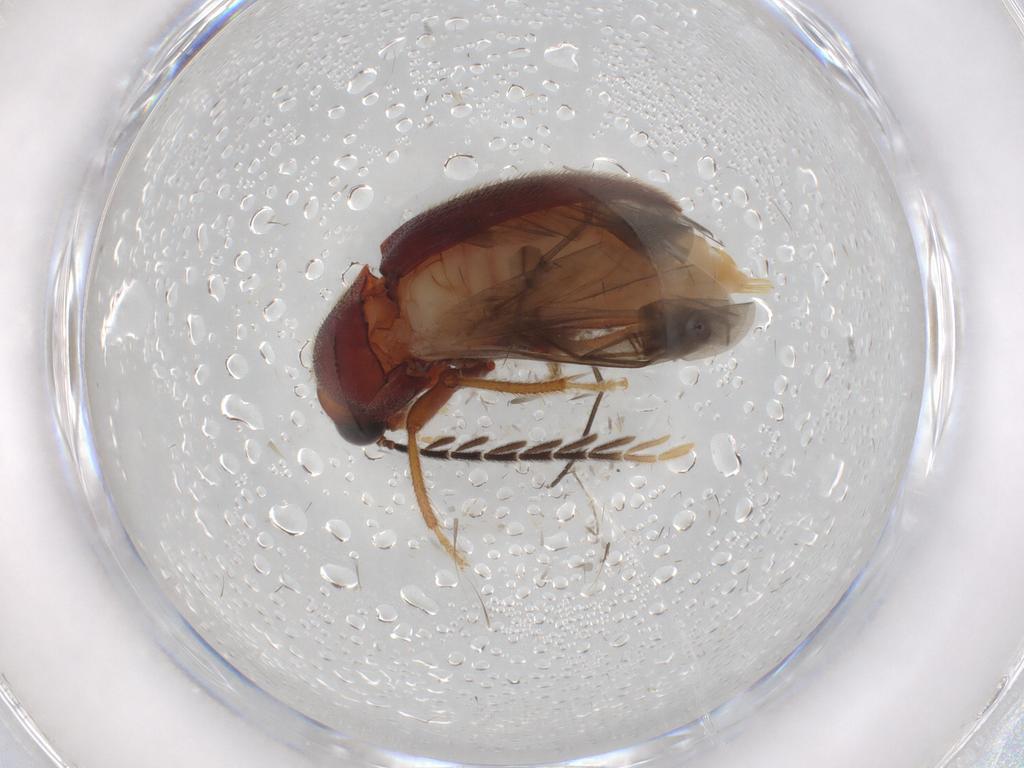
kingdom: Animalia
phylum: Arthropoda
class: Insecta
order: Coleoptera
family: Ptilodactylidae
